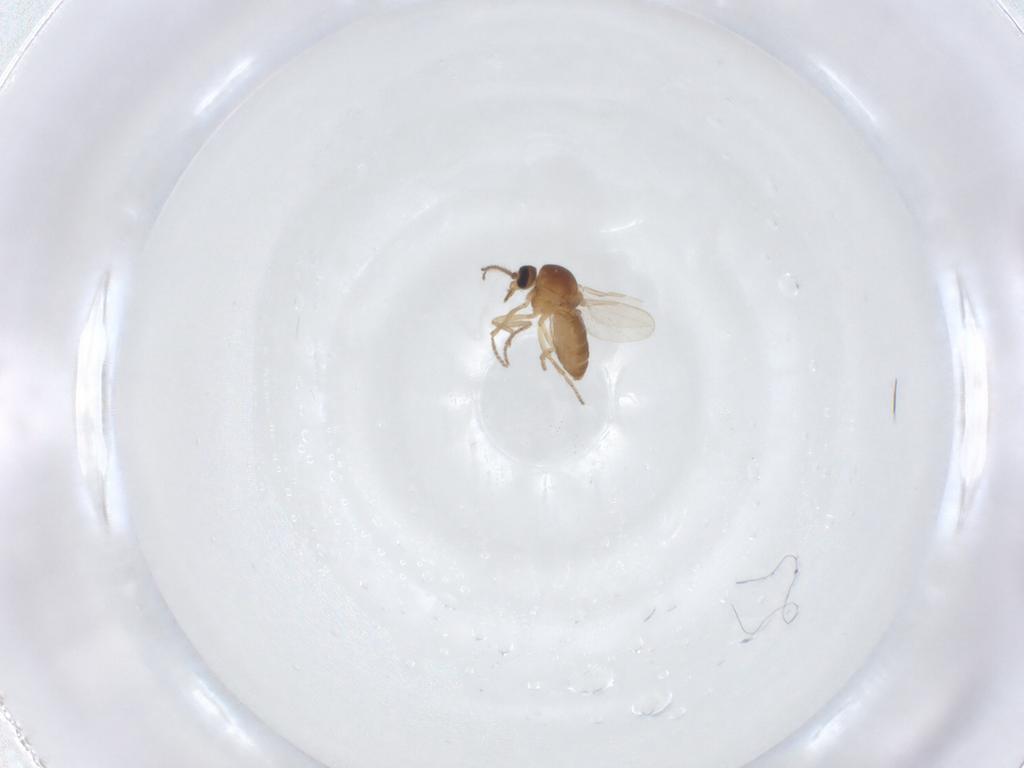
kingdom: Animalia
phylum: Arthropoda
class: Insecta
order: Diptera
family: Ceratopogonidae
